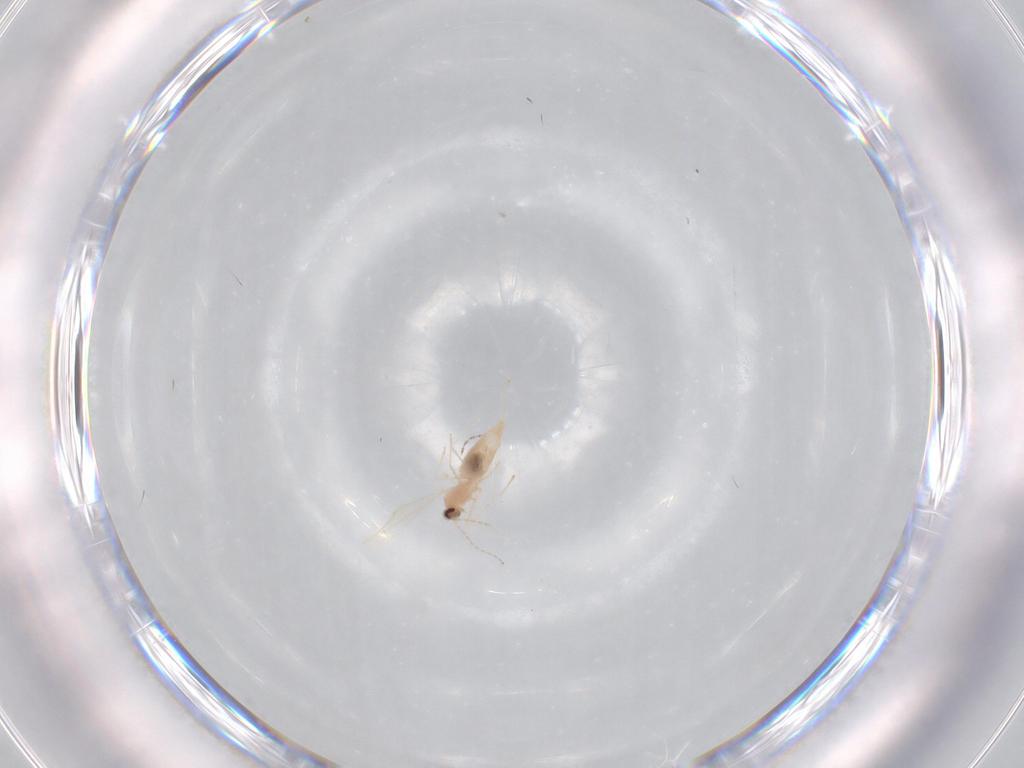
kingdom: Animalia
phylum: Arthropoda
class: Insecta
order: Diptera
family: Cecidomyiidae
